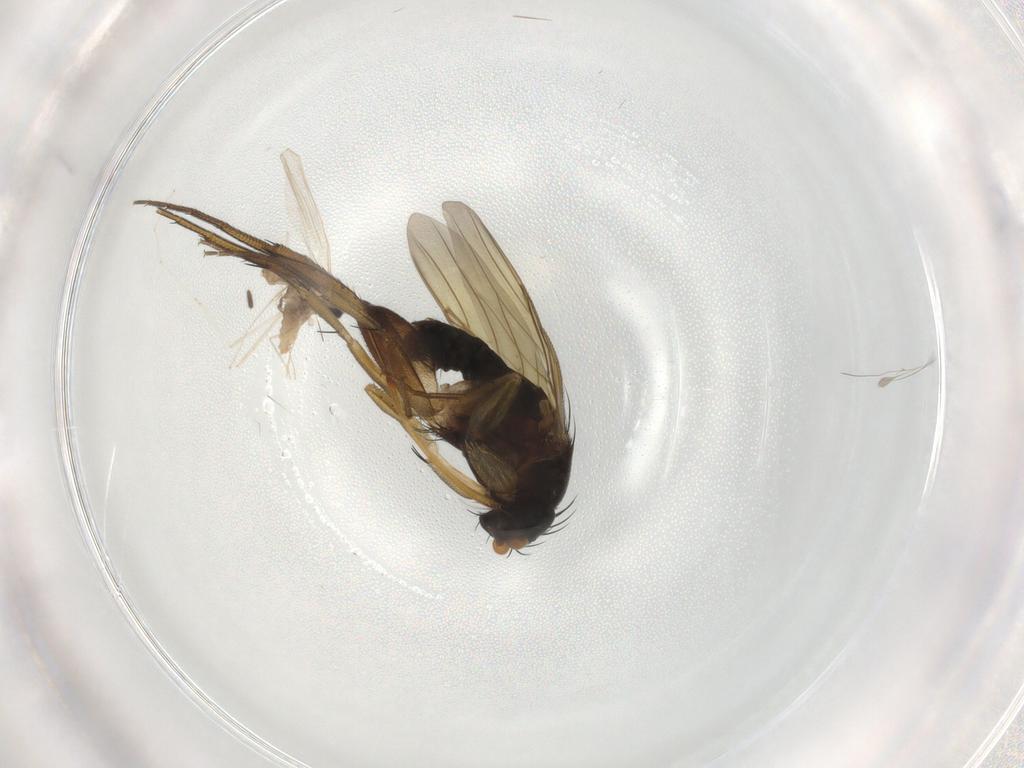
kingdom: Animalia
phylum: Arthropoda
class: Insecta
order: Diptera
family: Phoridae
